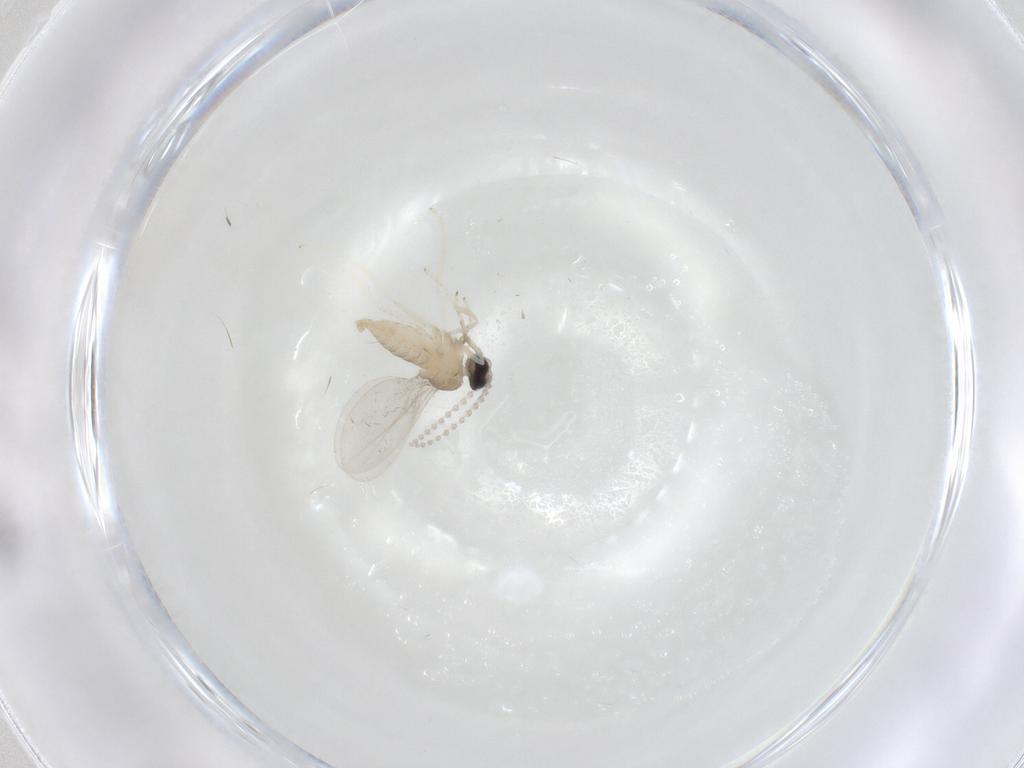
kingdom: Animalia
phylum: Arthropoda
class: Insecta
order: Diptera
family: Cecidomyiidae
